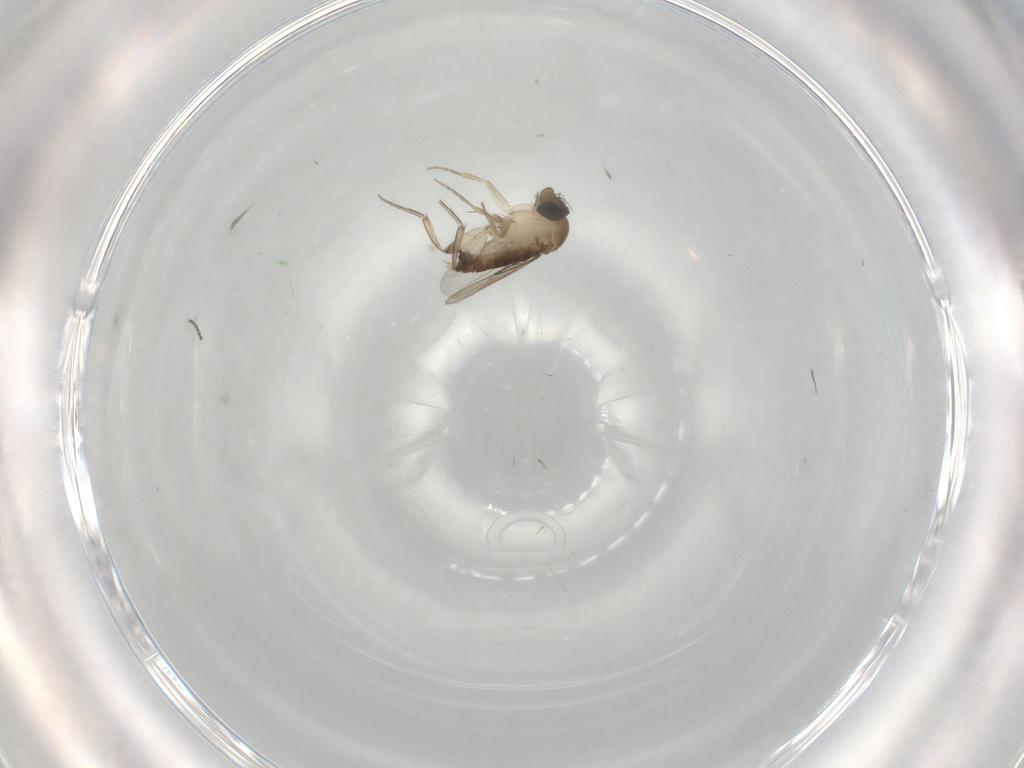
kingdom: Animalia
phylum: Arthropoda
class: Insecta
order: Diptera
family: Phoridae
